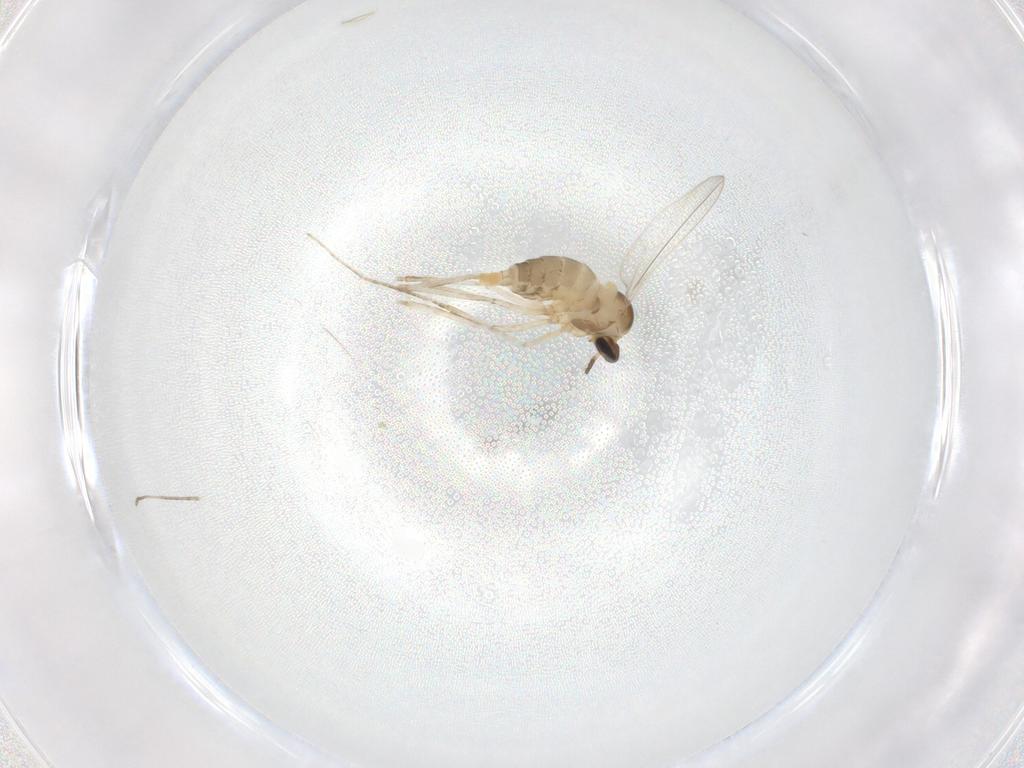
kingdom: Animalia
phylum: Arthropoda
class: Insecta
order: Diptera
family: Cecidomyiidae
